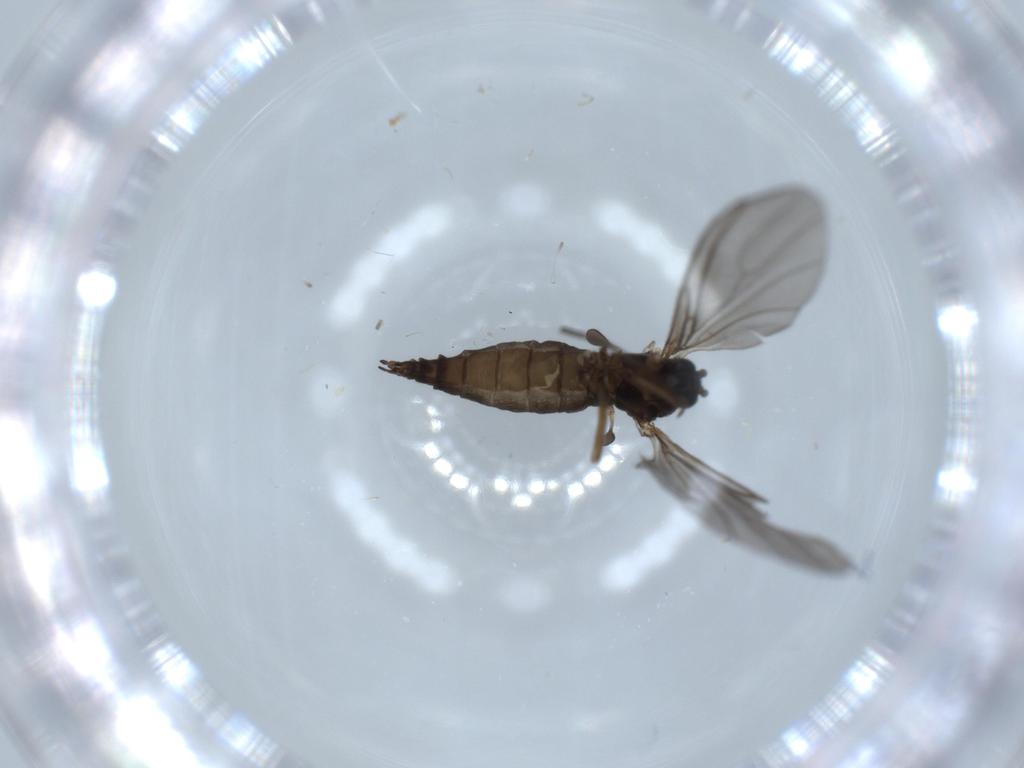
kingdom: Animalia
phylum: Arthropoda
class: Insecta
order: Diptera
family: Sciaridae
